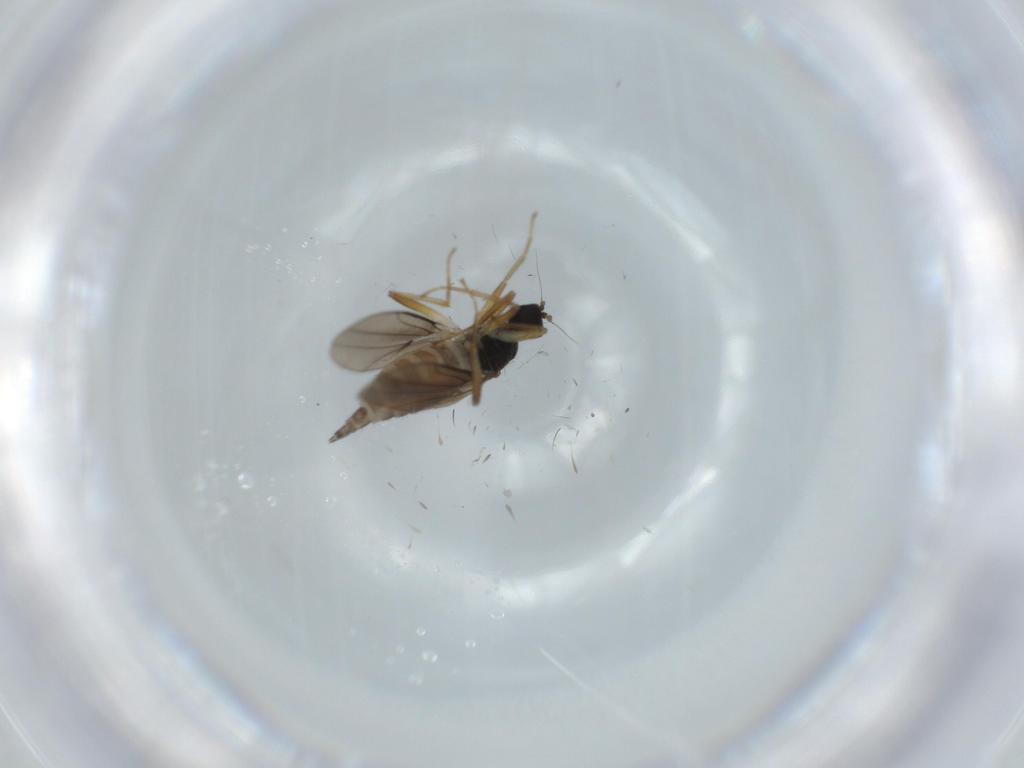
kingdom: Animalia
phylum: Arthropoda
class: Insecta
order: Diptera
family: Hybotidae
